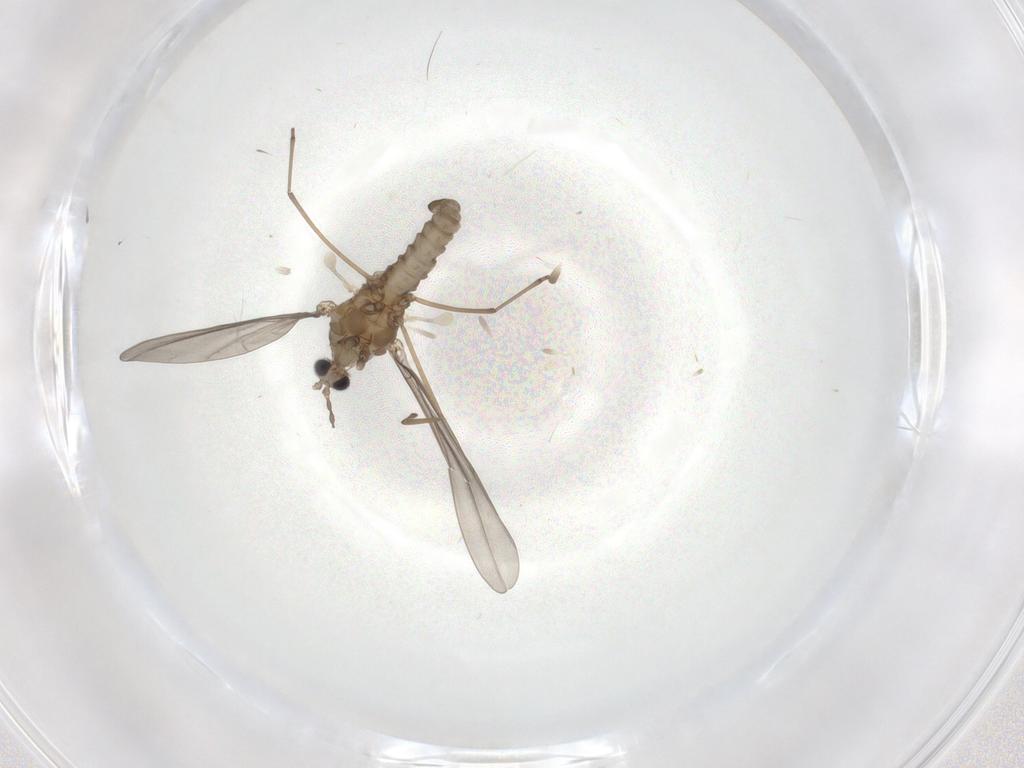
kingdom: Animalia
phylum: Arthropoda
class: Insecta
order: Diptera
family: Cecidomyiidae
